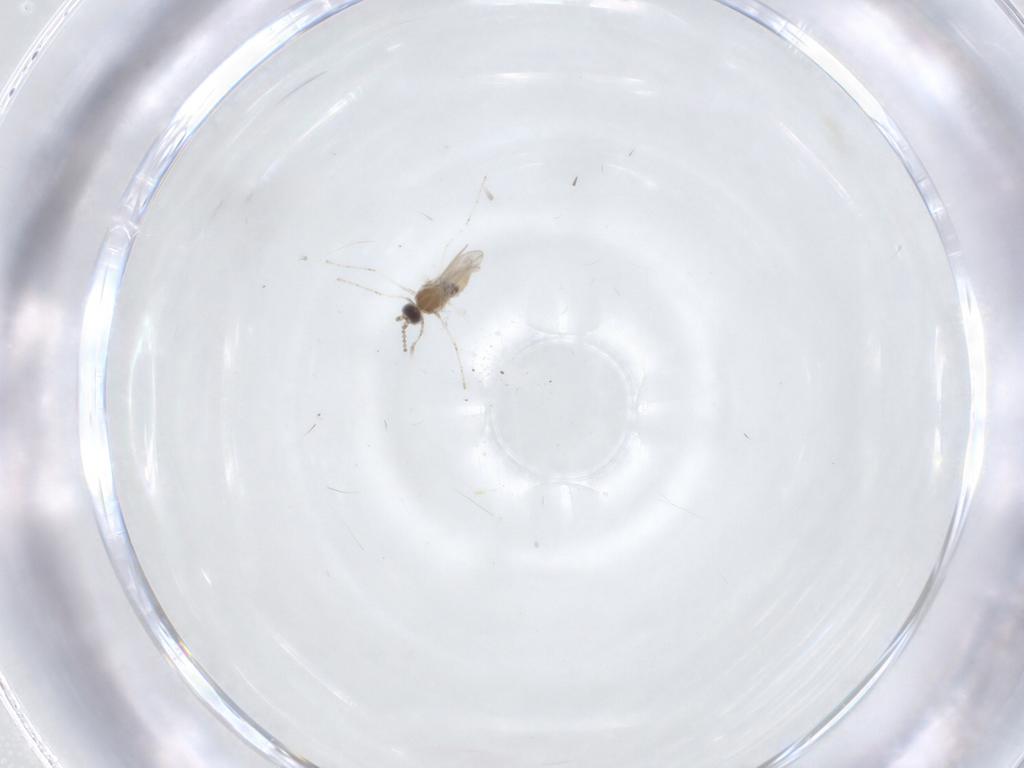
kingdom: Animalia
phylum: Arthropoda
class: Insecta
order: Diptera
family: Cecidomyiidae
